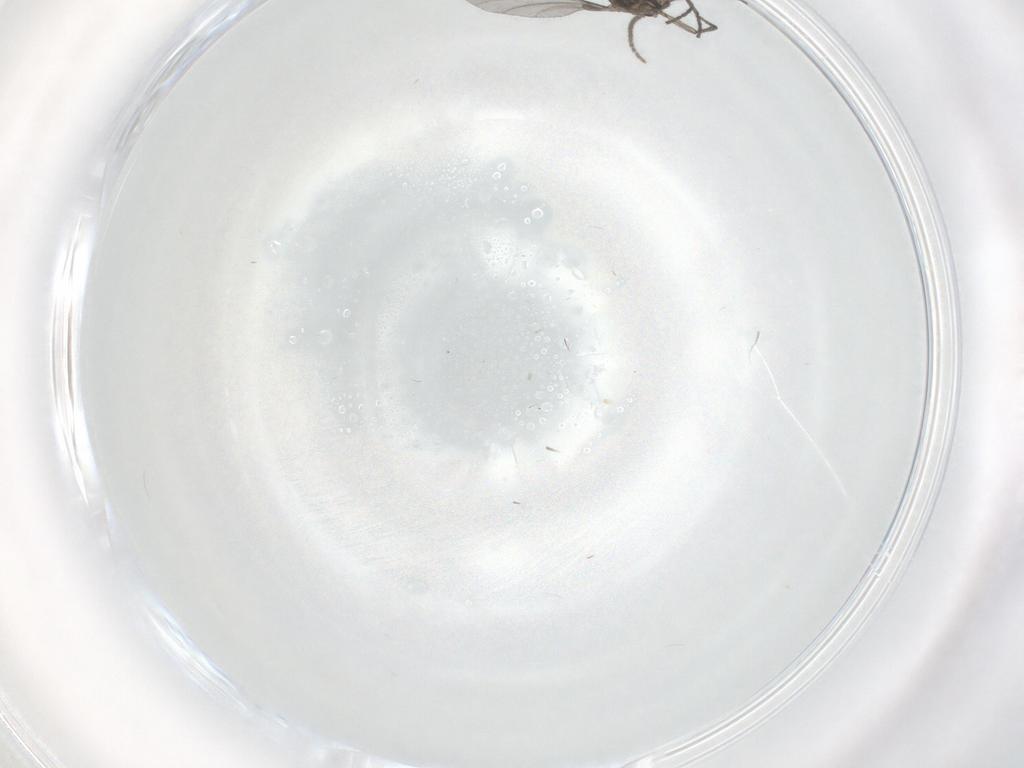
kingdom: Animalia
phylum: Arthropoda
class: Insecta
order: Diptera
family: Sciaridae
